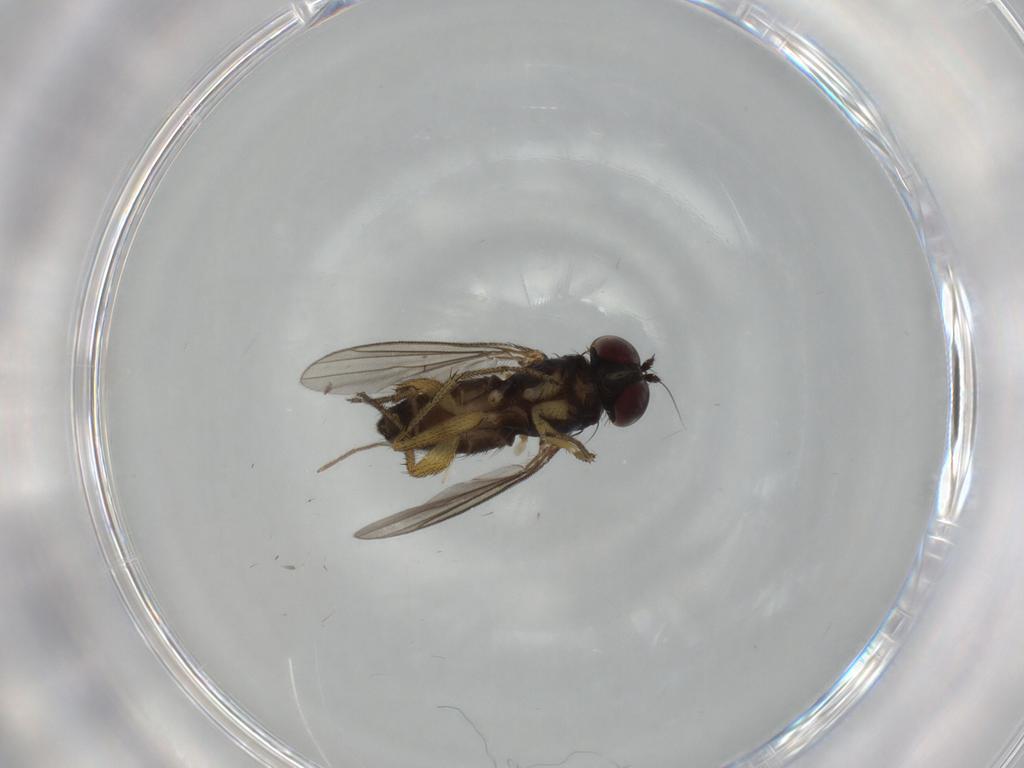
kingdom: Animalia
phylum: Arthropoda
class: Insecta
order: Diptera
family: Dolichopodidae
